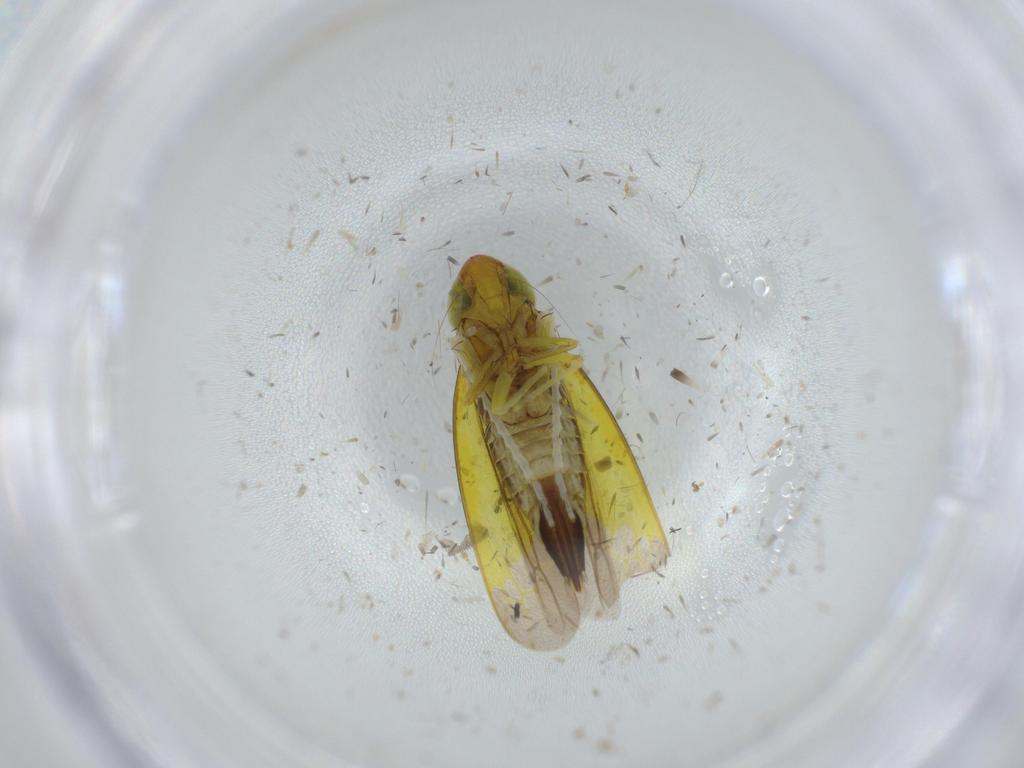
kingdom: Animalia
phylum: Arthropoda
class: Insecta
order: Hemiptera
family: Cicadellidae
